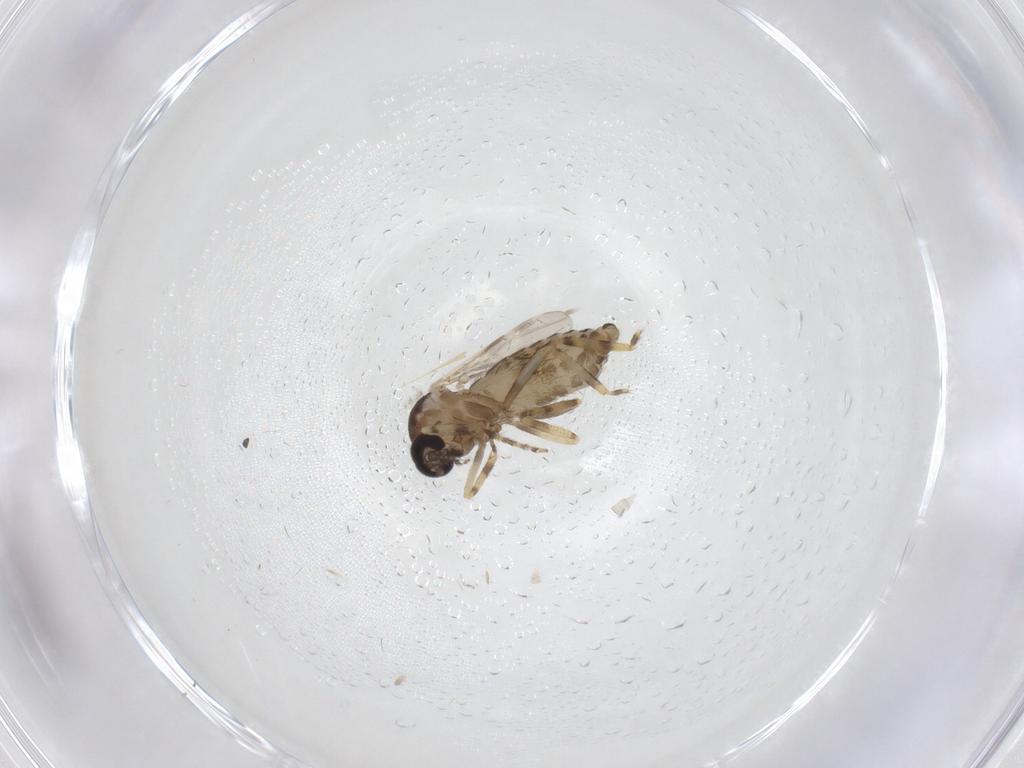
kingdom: Animalia
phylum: Arthropoda
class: Insecta
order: Diptera
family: Ceratopogonidae
